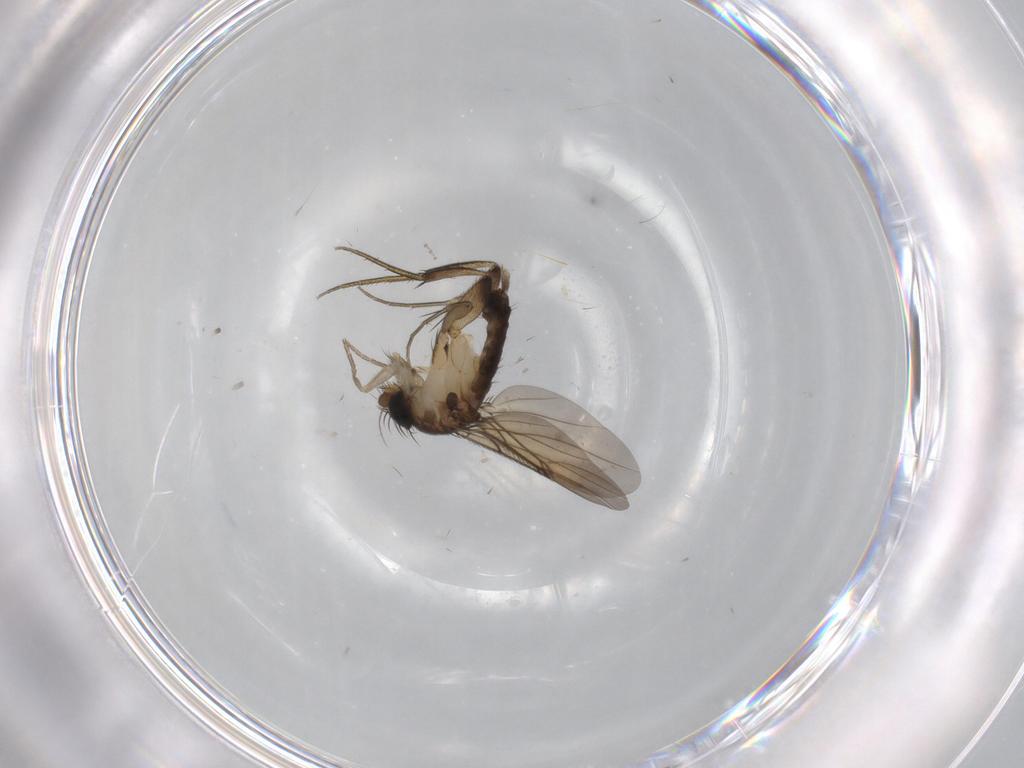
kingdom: Animalia
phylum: Arthropoda
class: Insecta
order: Diptera
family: Cecidomyiidae
